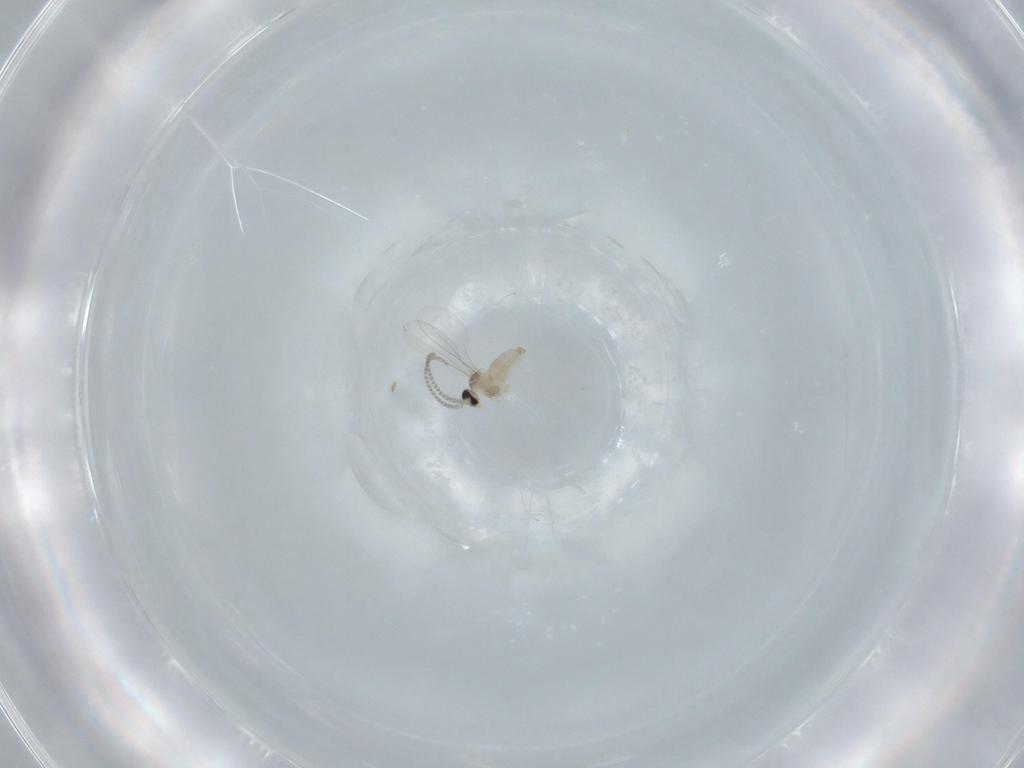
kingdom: Animalia
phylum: Arthropoda
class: Insecta
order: Diptera
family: Cecidomyiidae
